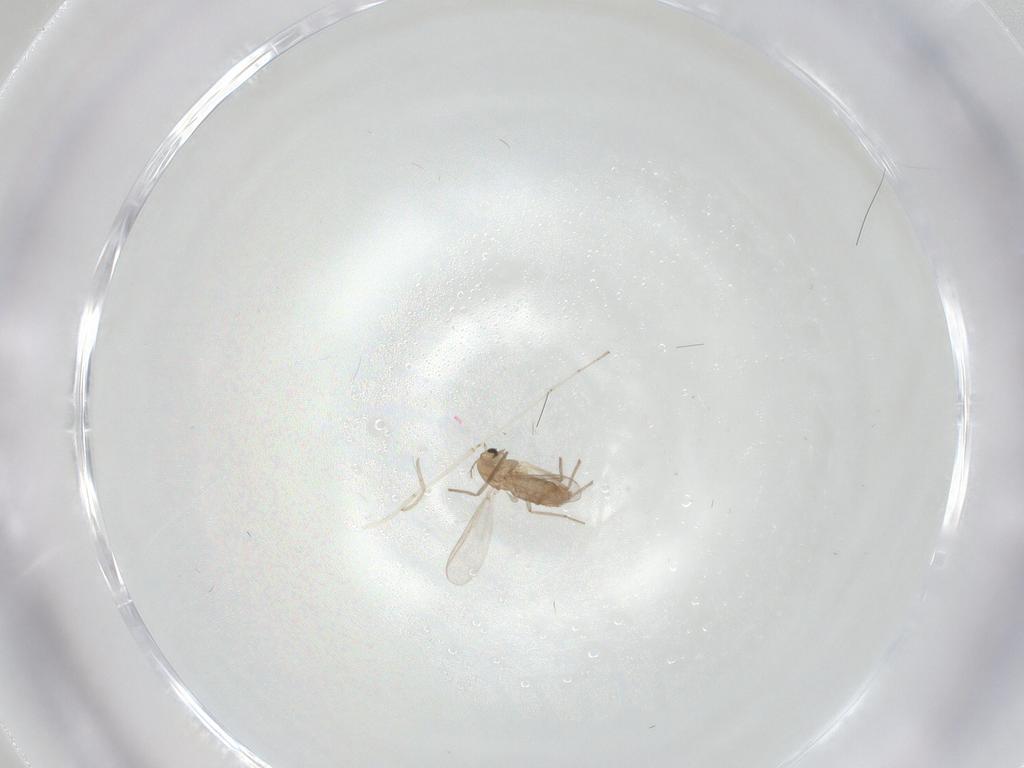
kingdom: Animalia
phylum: Arthropoda
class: Insecta
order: Diptera
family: Cecidomyiidae
